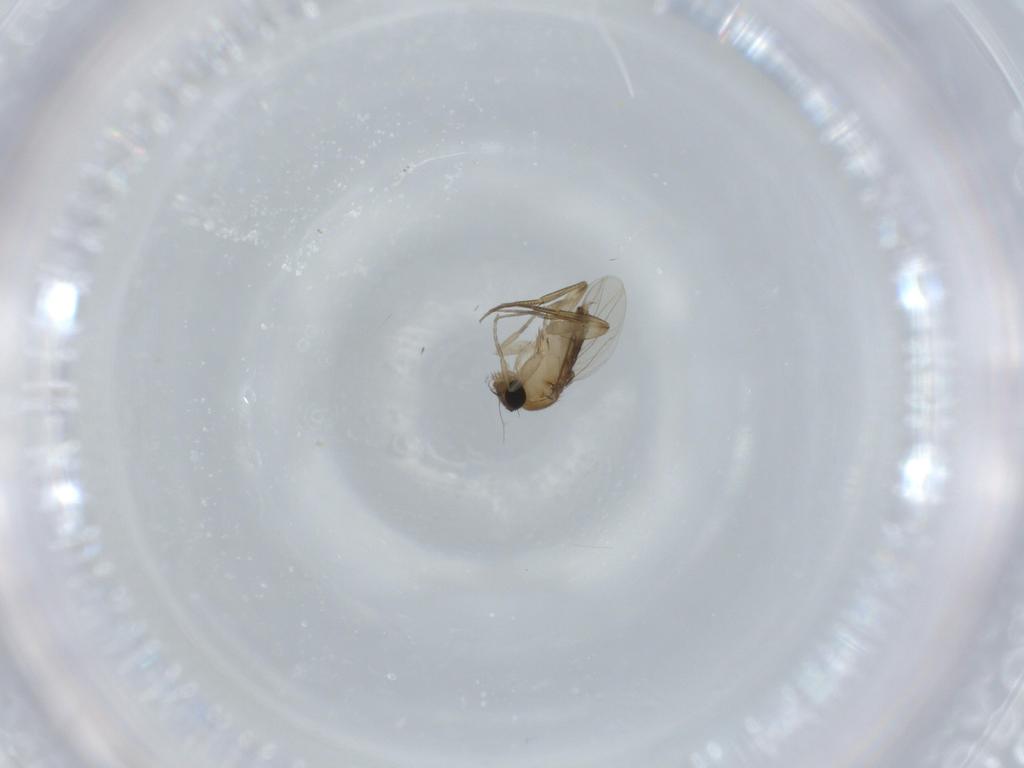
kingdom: Animalia
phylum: Arthropoda
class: Insecta
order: Diptera
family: Phoridae
